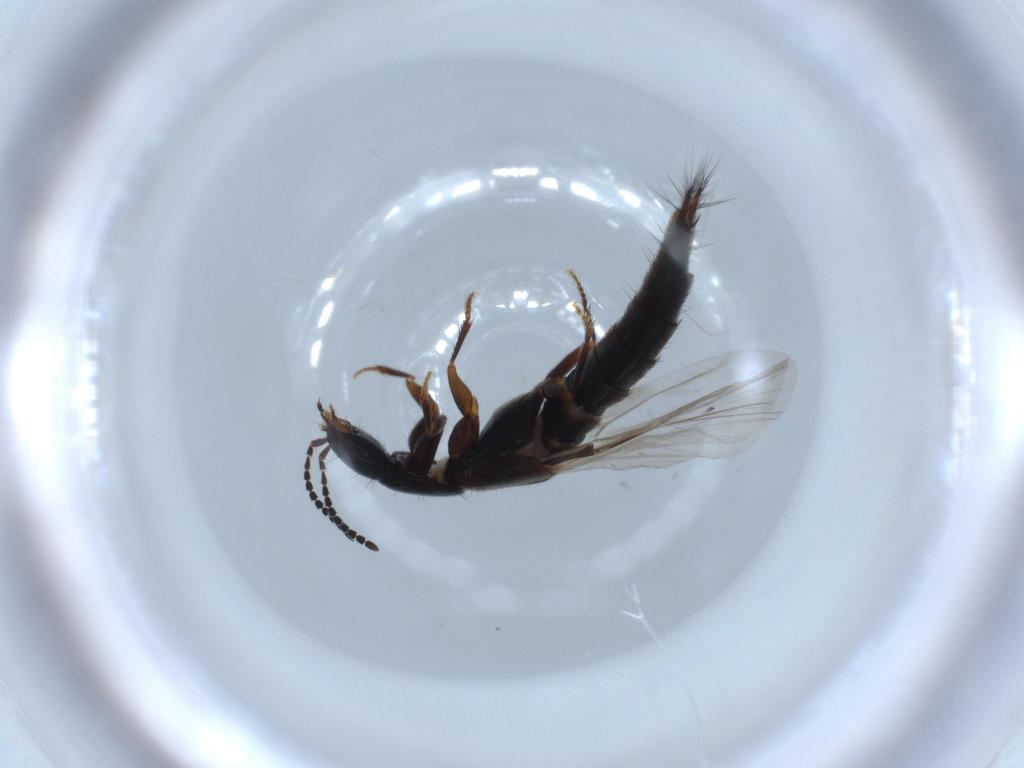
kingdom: Animalia
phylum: Arthropoda
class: Insecta
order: Coleoptera
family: Staphylinidae
